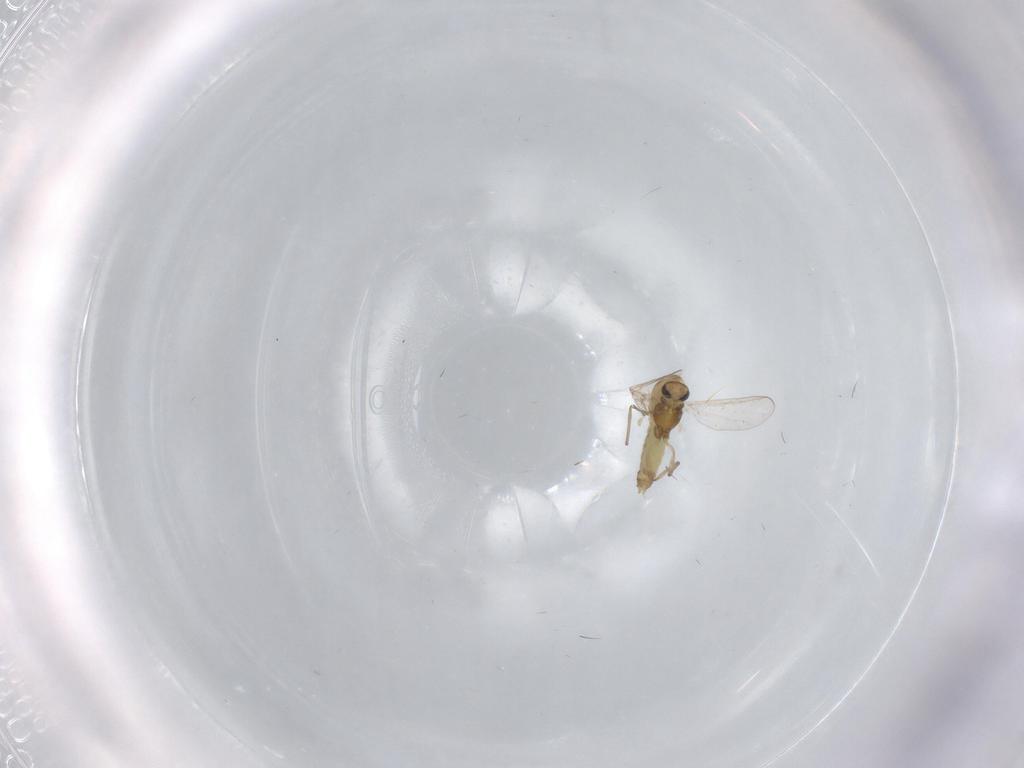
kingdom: Animalia
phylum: Arthropoda
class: Insecta
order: Diptera
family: Chironomidae
